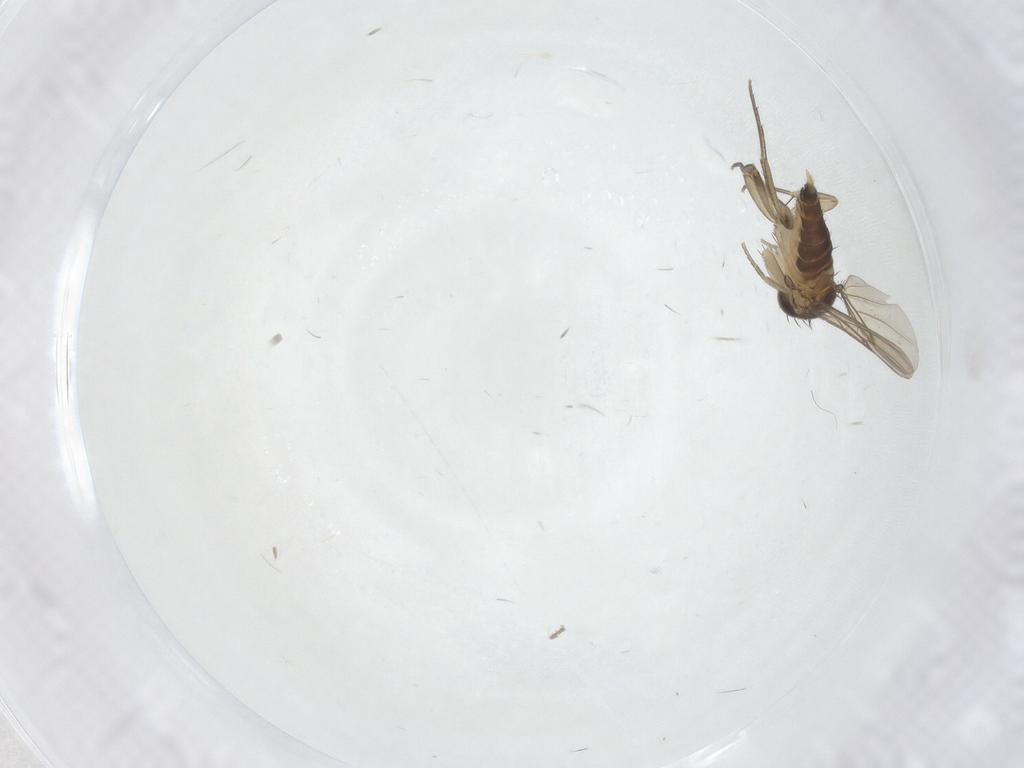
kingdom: Animalia
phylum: Arthropoda
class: Insecta
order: Diptera
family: Phoridae
